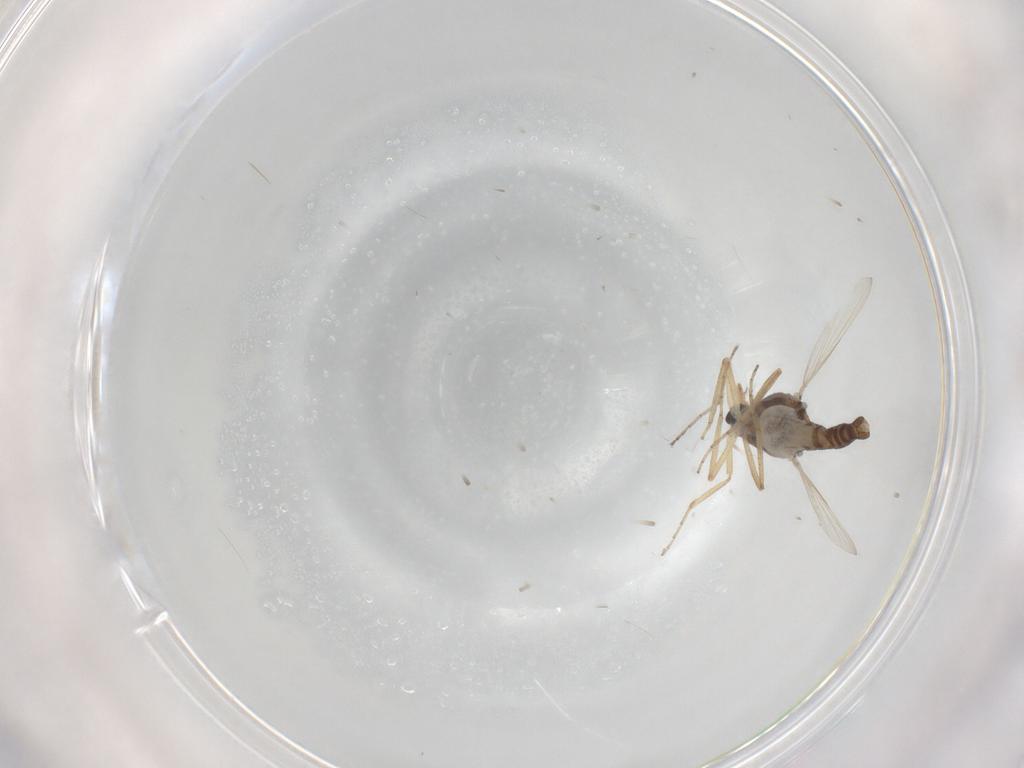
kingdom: Animalia
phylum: Arthropoda
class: Insecta
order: Diptera
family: Ceratopogonidae
